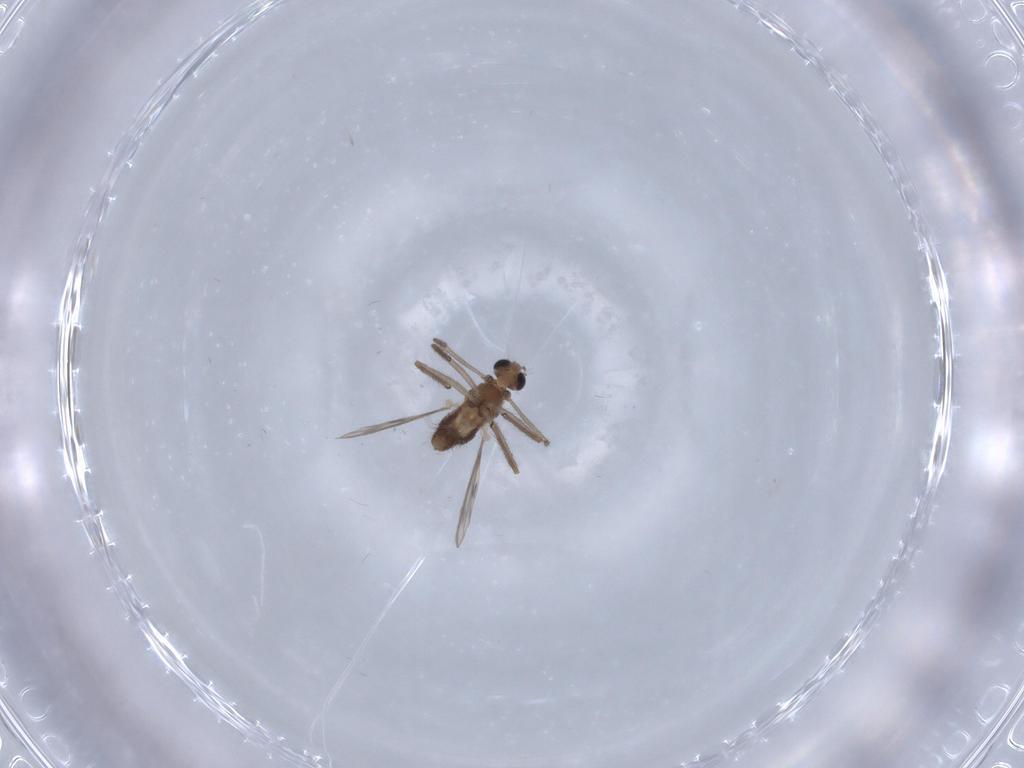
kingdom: Animalia
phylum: Arthropoda
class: Insecta
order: Diptera
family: Chironomidae
